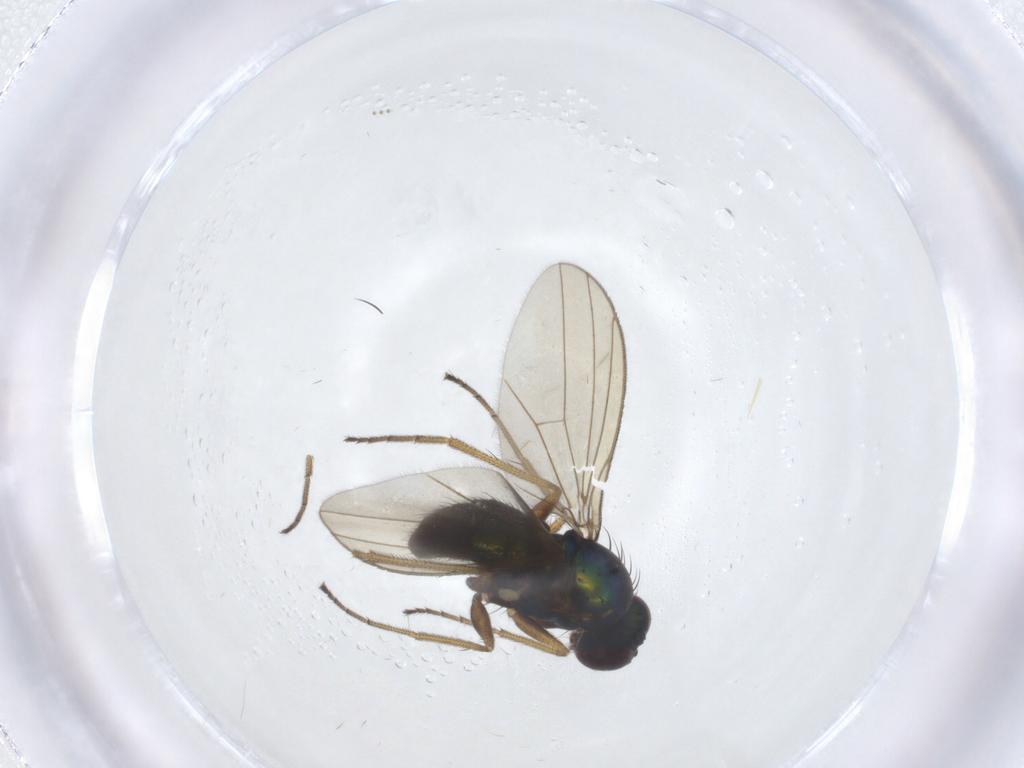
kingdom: Animalia
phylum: Arthropoda
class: Insecta
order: Diptera
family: Dolichopodidae
